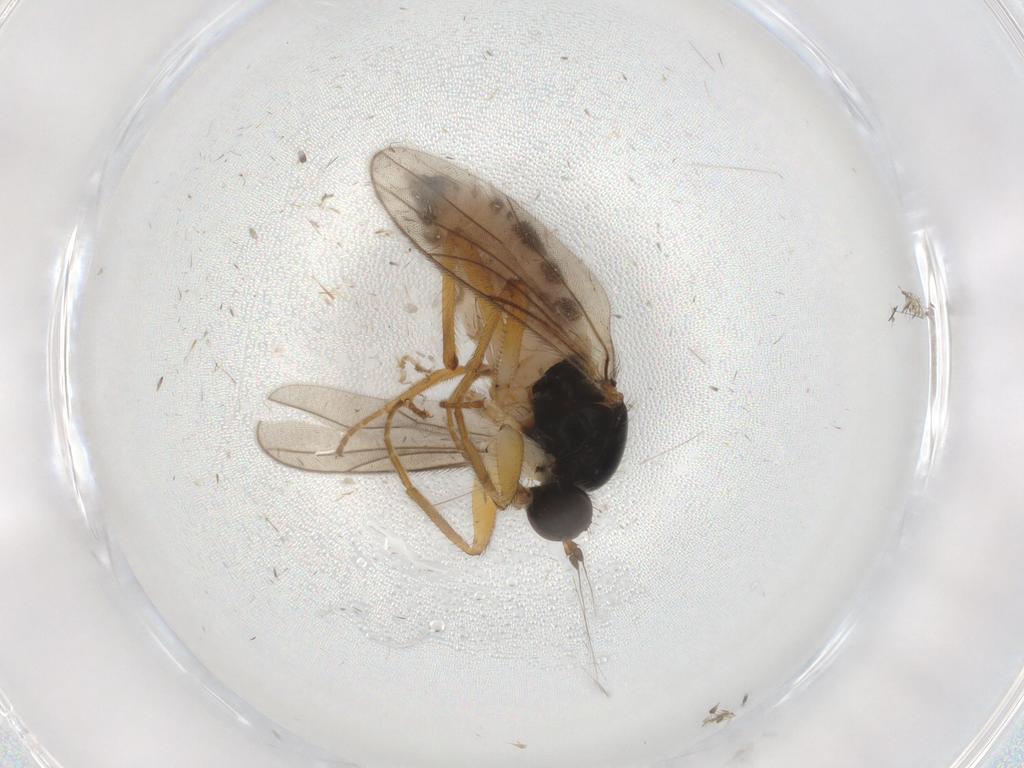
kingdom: Animalia
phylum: Arthropoda
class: Insecta
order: Diptera
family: Hybotidae
